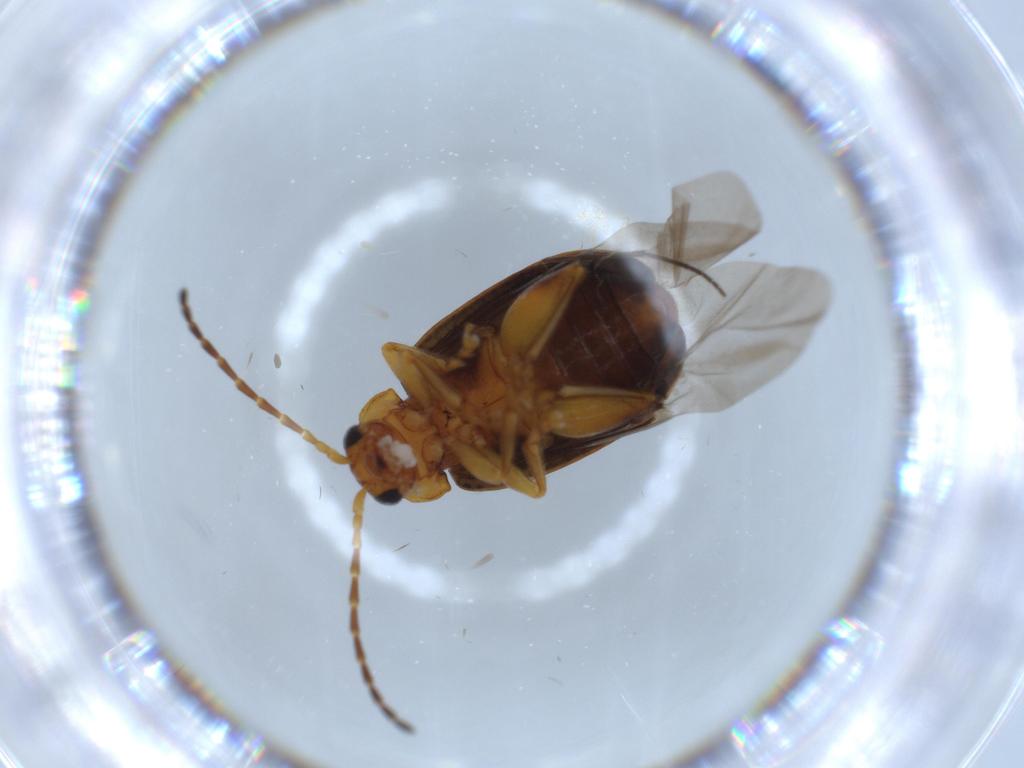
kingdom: Animalia
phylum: Arthropoda
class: Insecta
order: Coleoptera
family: Chrysomelidae
